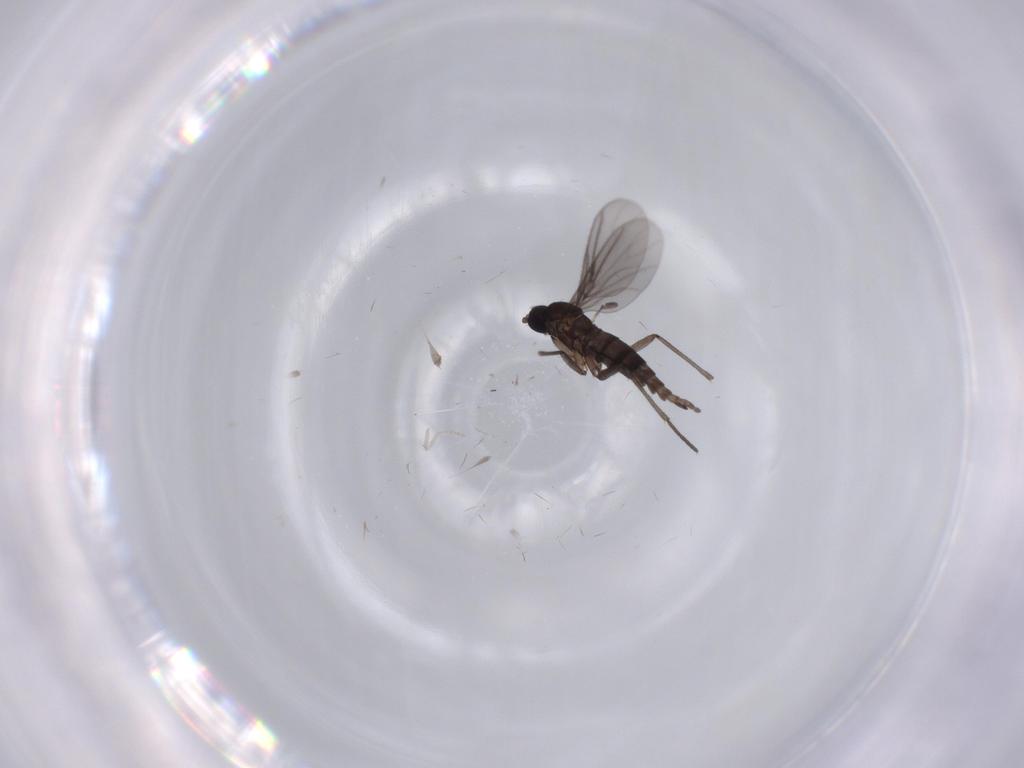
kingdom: Animalia
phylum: Arthropoda
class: Insecta
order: Diptera
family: Cecidomyiidae
